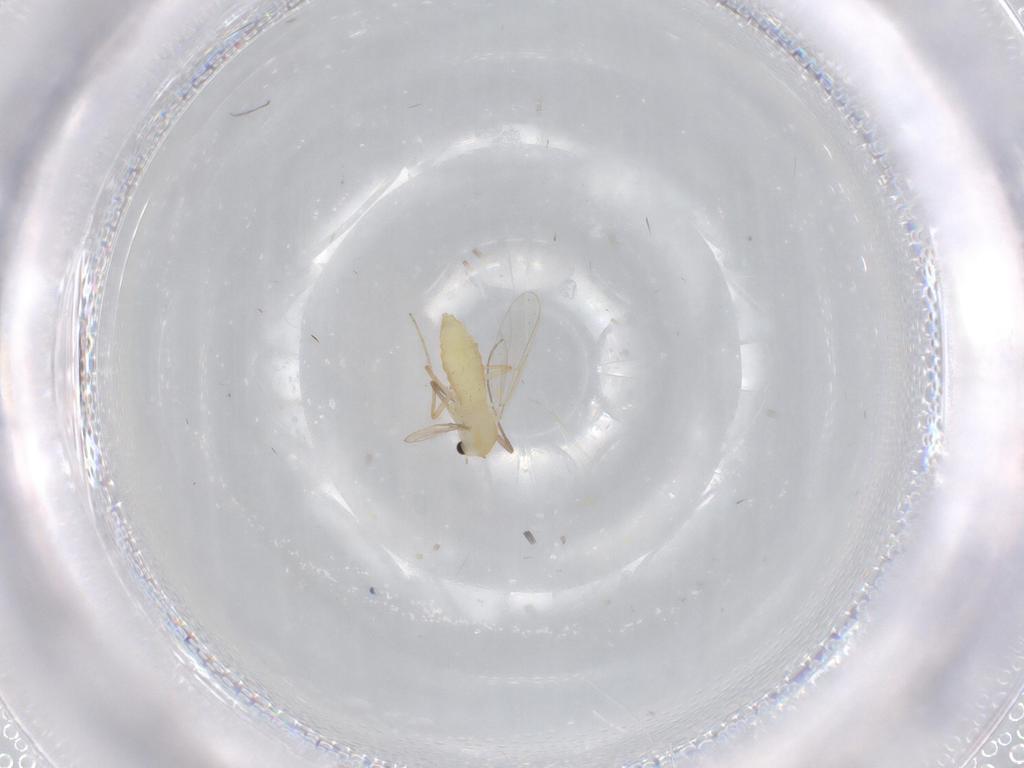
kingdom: Animalia
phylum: Arthropoda
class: Insecta
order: Diptera
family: Chironomidae
